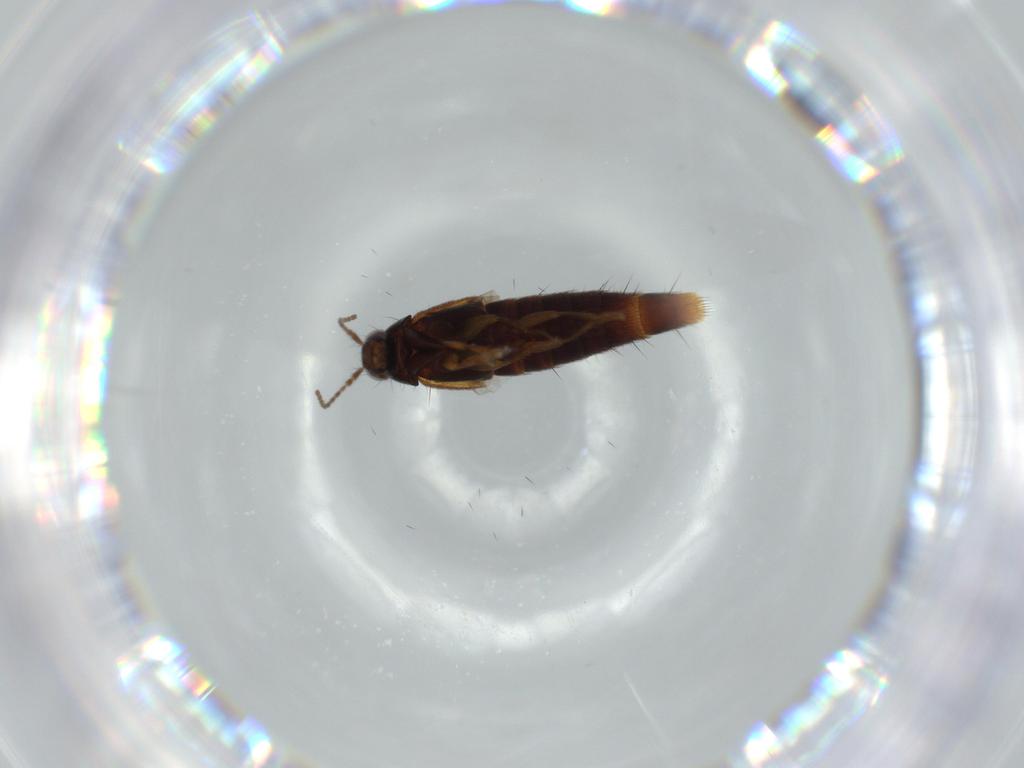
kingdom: Animalia
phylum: Arthropoda
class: Insecta
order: Coleoptera
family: Staphylinidae
